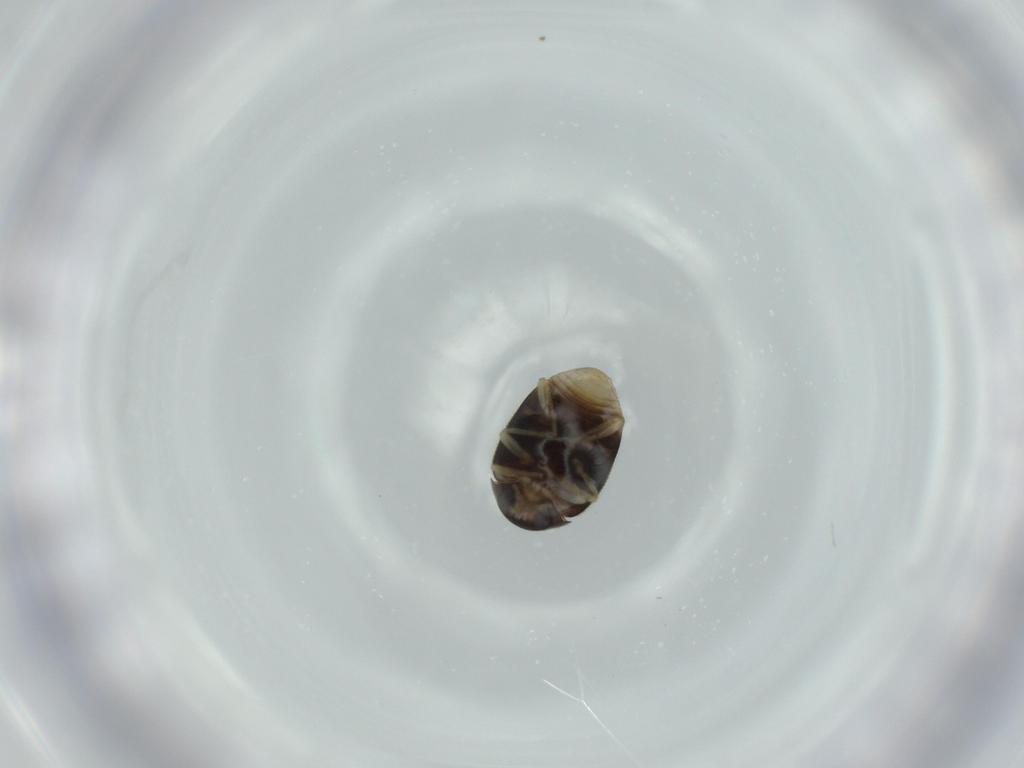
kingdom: Animalia
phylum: Arthropoda
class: Insecta
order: Coleoptera
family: Coccinellidae
